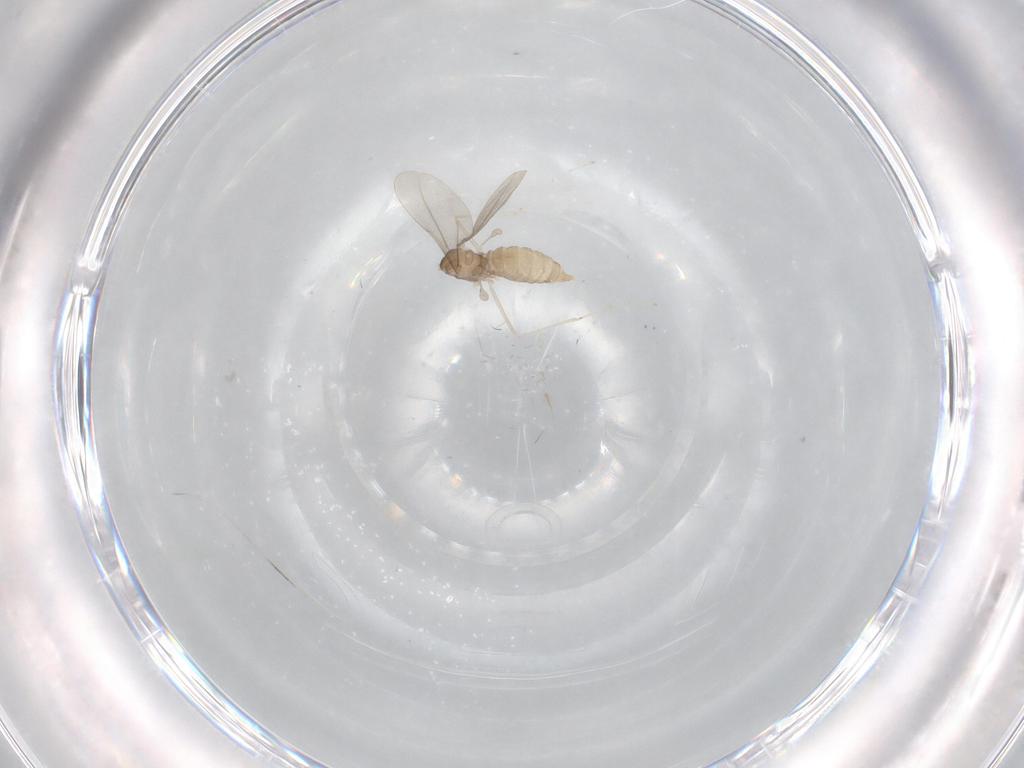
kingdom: Animalia
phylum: Arthropoda
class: Insecta
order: Diptera
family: Cecidomyiidae
